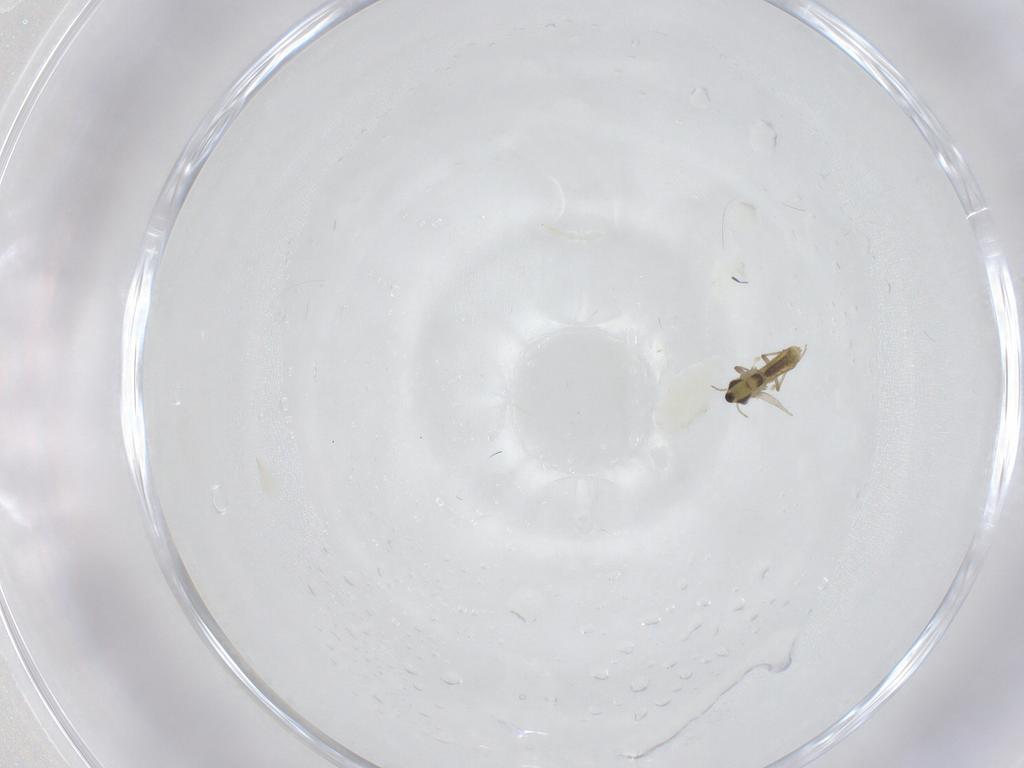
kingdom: Animalia
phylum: Arthropoda
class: Insecta
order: Diptera
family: Chironomidae
